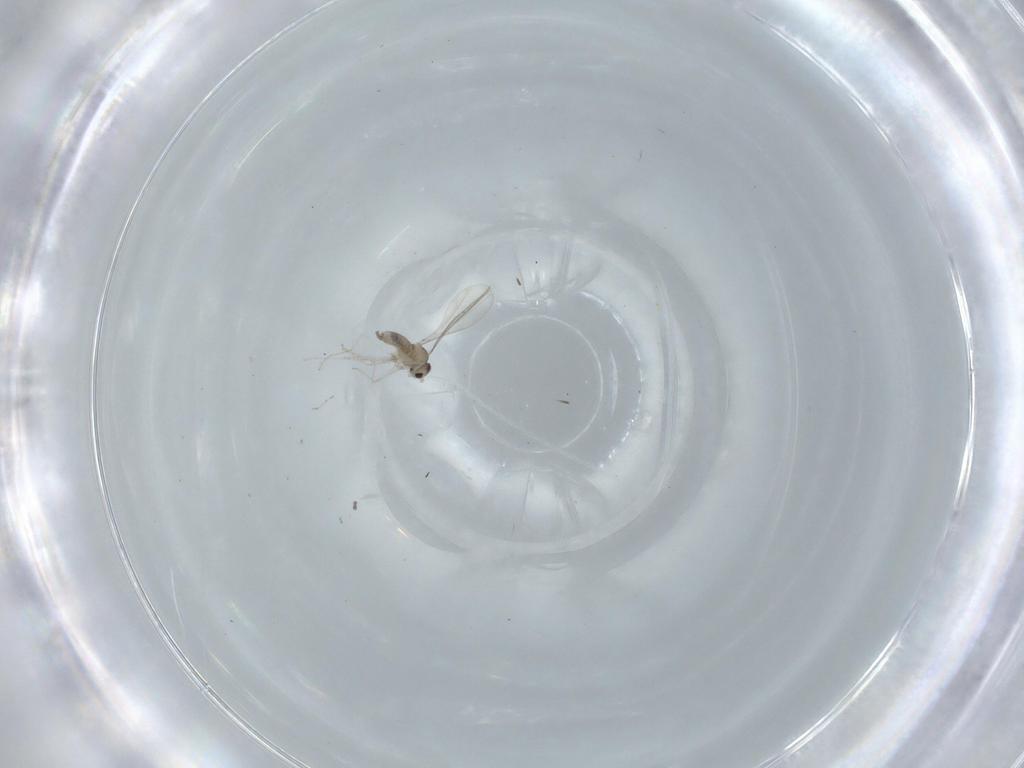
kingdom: Animalia
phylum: Arthropoda
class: Insecta
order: Diptera
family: Cecidomyiidae
